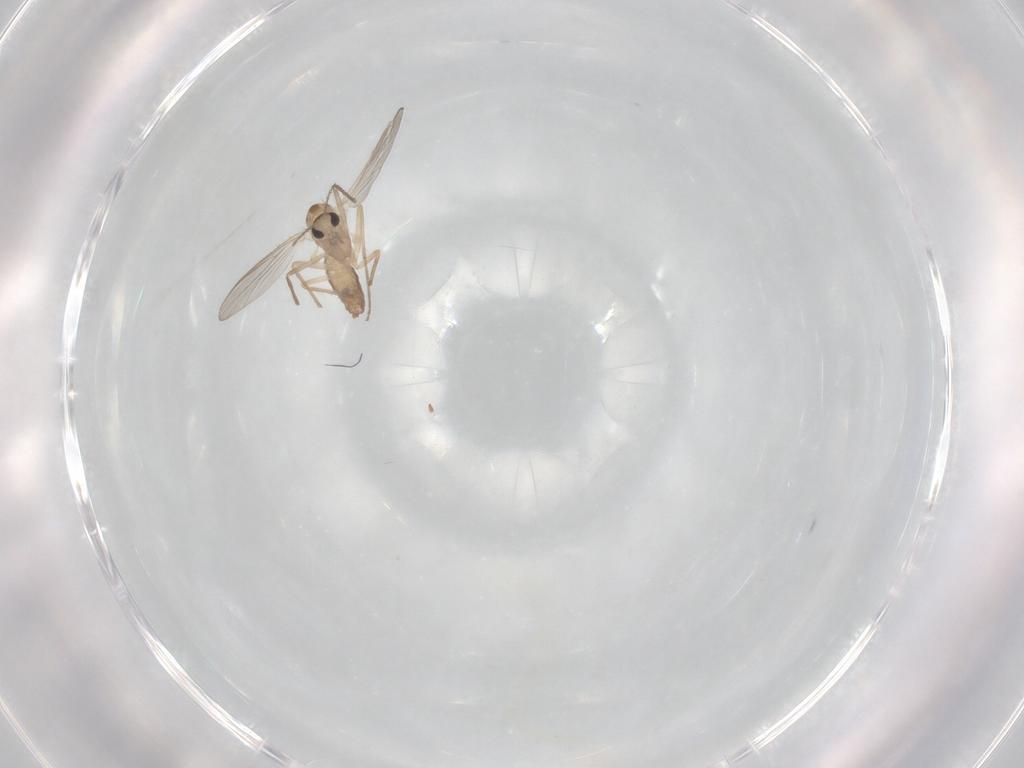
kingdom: Animalia
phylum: Arthropoda
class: Insecta
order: Diptera
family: Chironomidae
